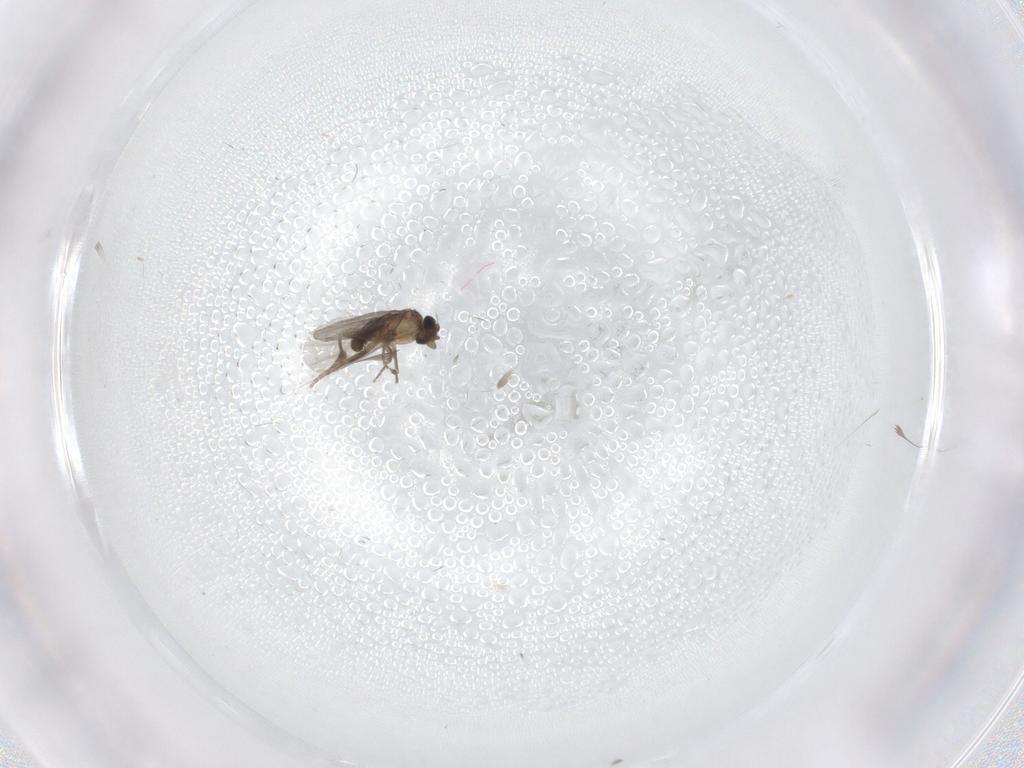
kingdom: Animalia
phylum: Arthropoda
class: Insecta
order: Diptera
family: Sciaridae
